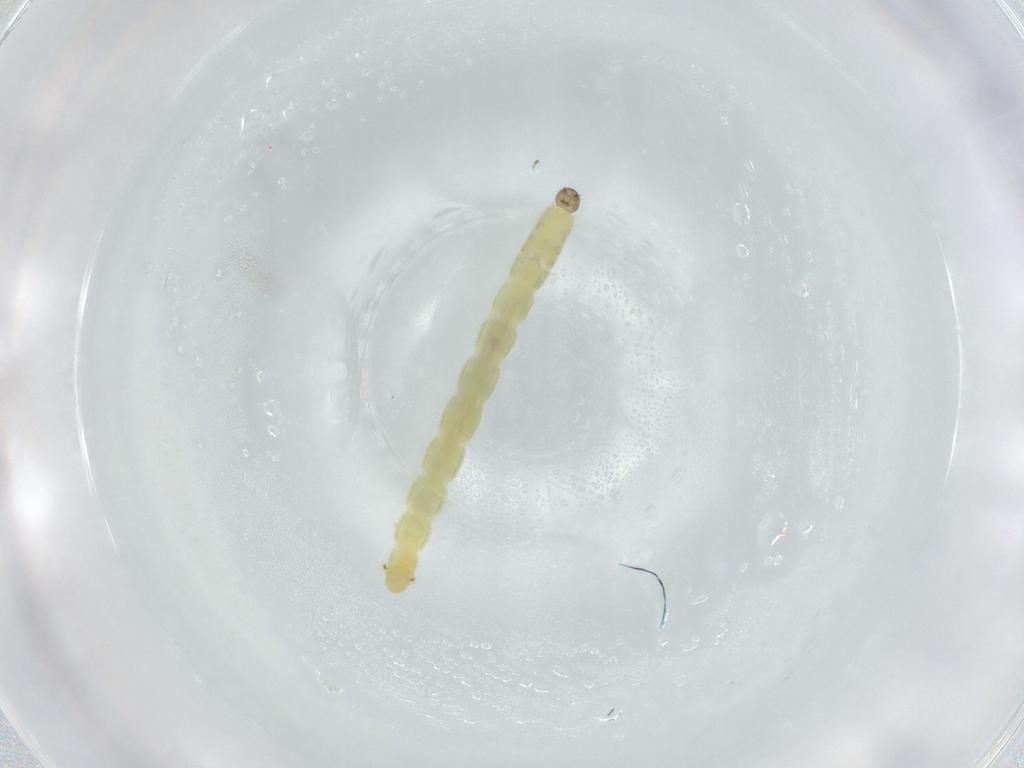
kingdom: Animalia
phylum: Arthropoda
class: Insecta
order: Diptera
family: Chironomidae
